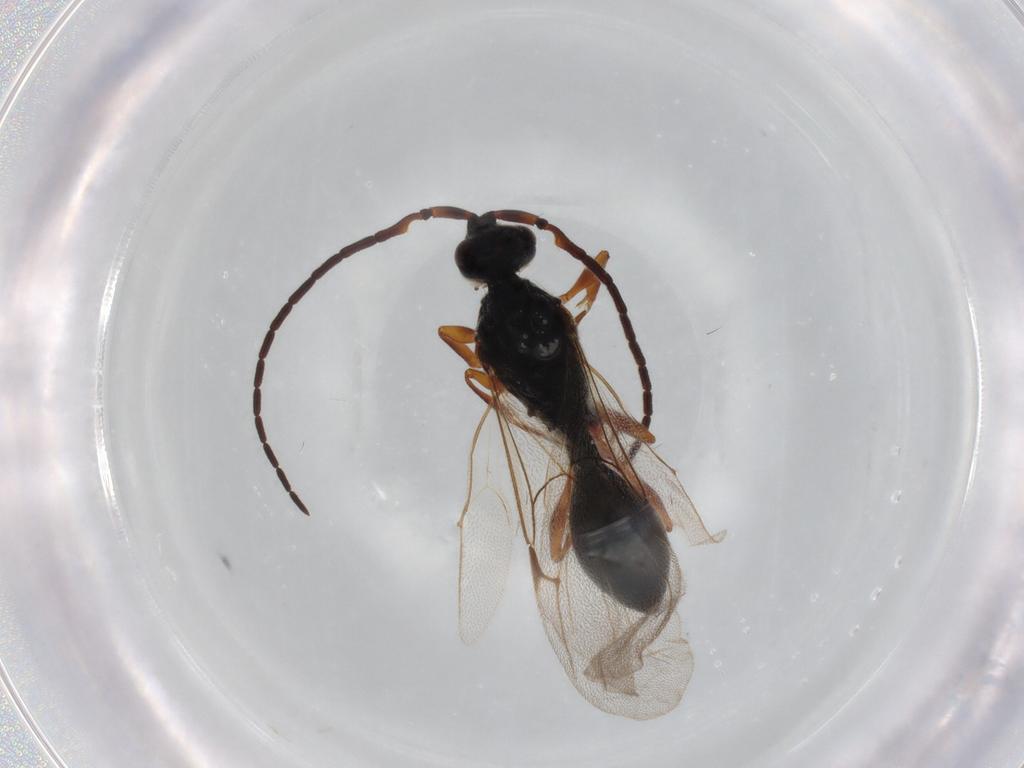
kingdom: Animalia
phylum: Arthropoda
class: Insecta
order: Hymenoptera
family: Diapriidae
